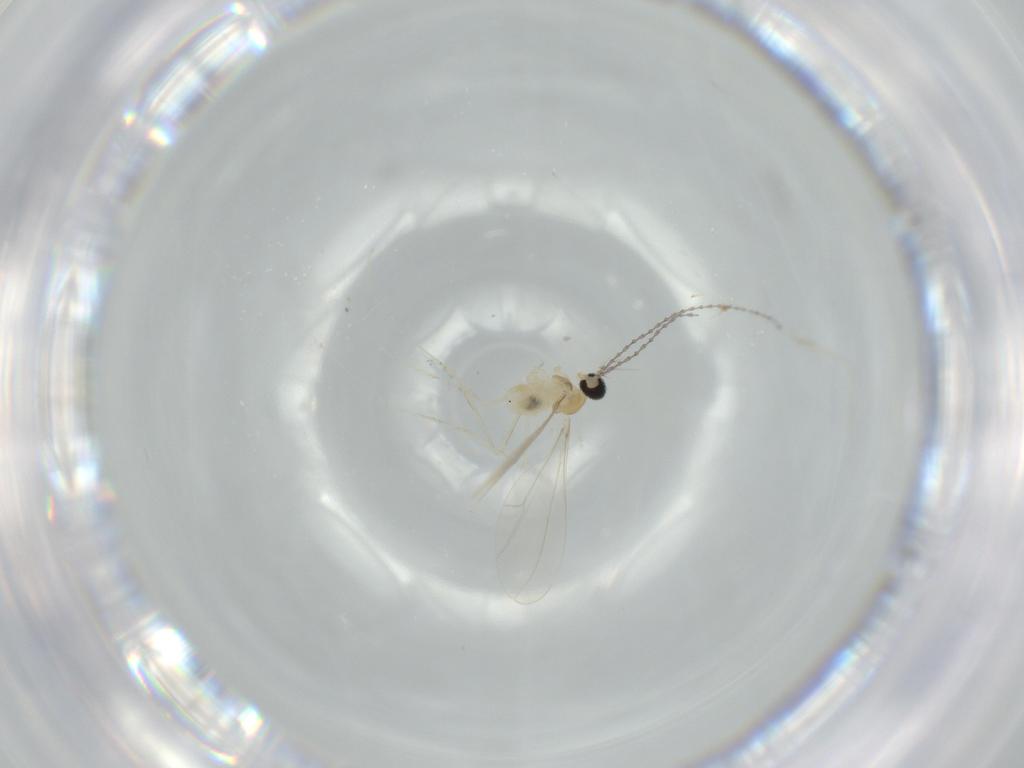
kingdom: Animalia
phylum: Arthropoda
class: Insecta
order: Diptera
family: Cecidomyiidae
